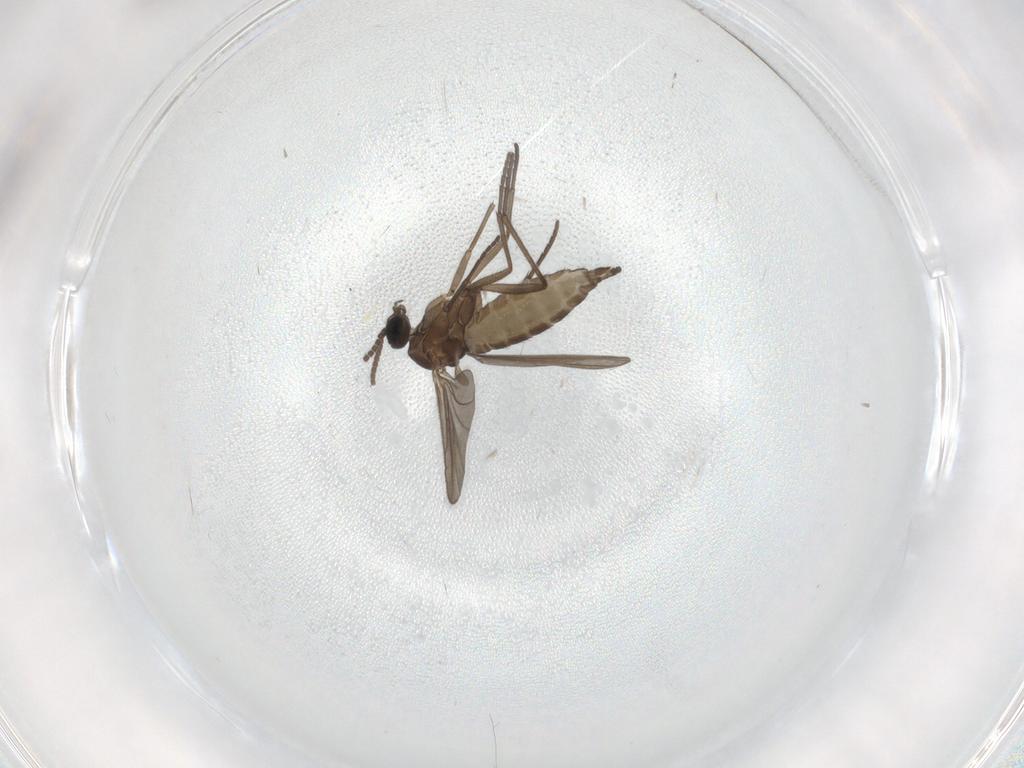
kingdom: Animalia
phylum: Arthropoda
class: Insecta
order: Diptera
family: Sciaridae
